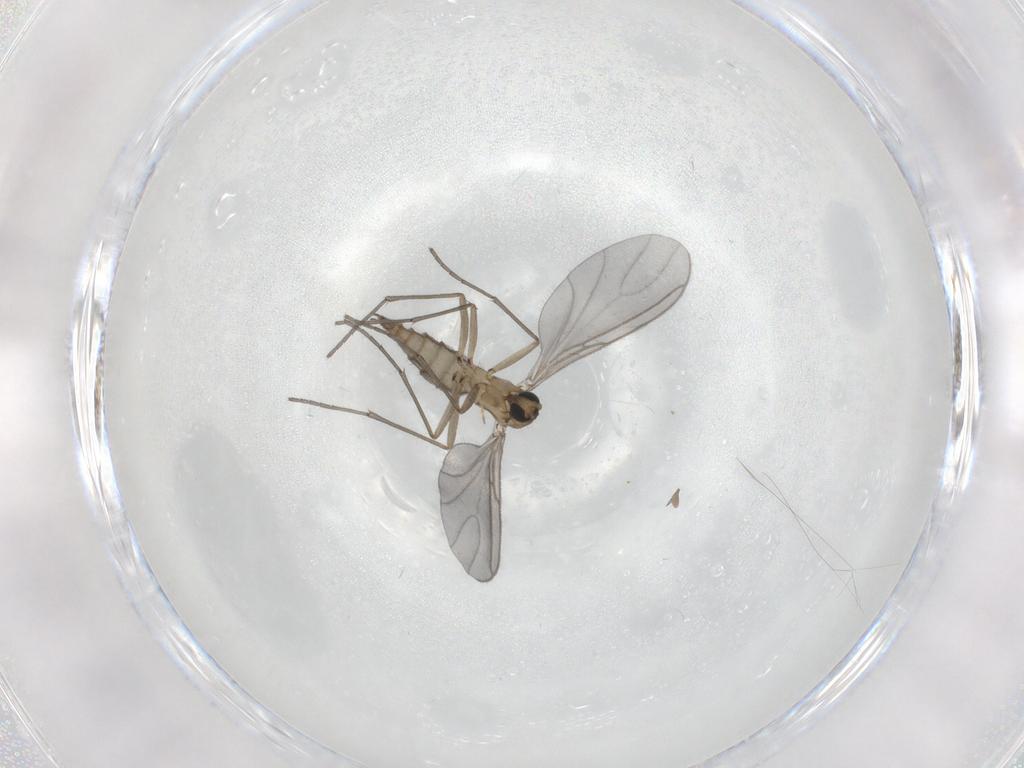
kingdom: Animalia
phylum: Arthropoda
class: Insecta
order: Diptera
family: Sciaridae
